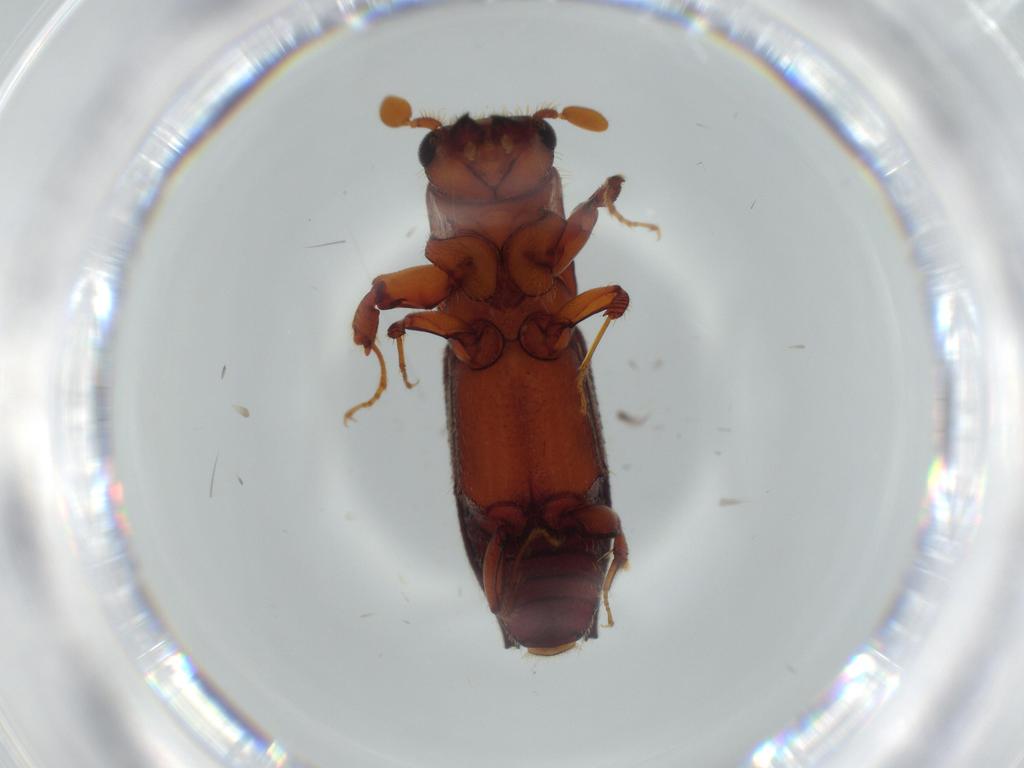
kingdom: Animalia
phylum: Arthropoda
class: Insecta
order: Coleoptera
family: Curculionidae
